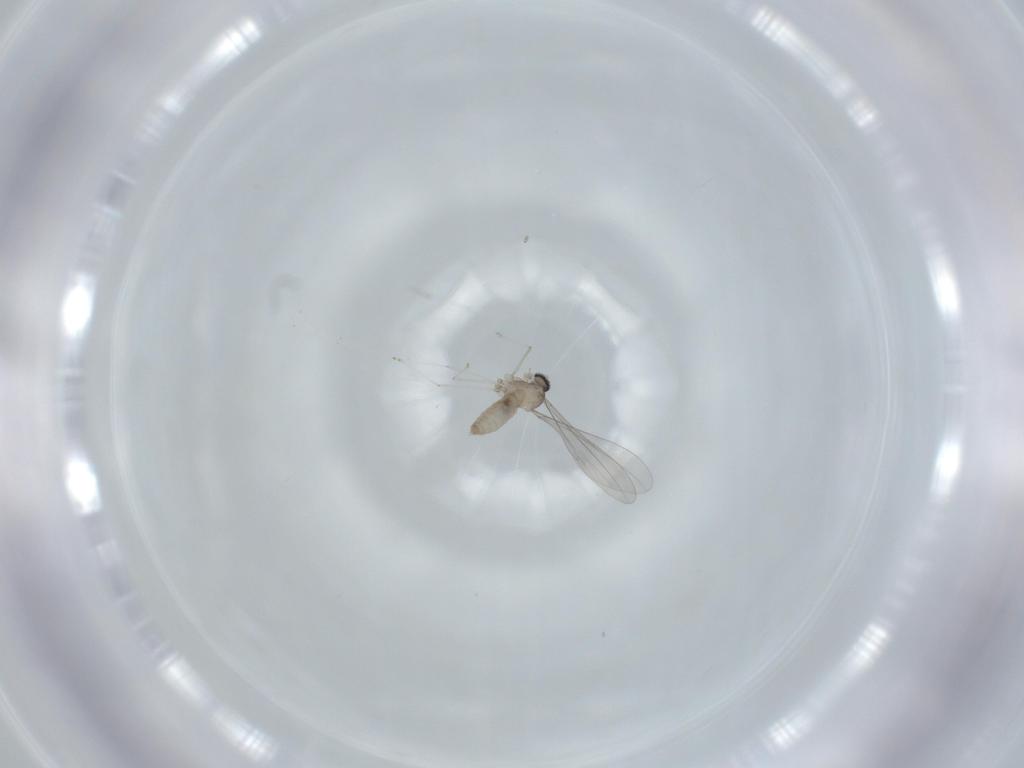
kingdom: Animalia
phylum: Arthropoda
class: Insecta
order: Diptera
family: Cecidomyiidae
